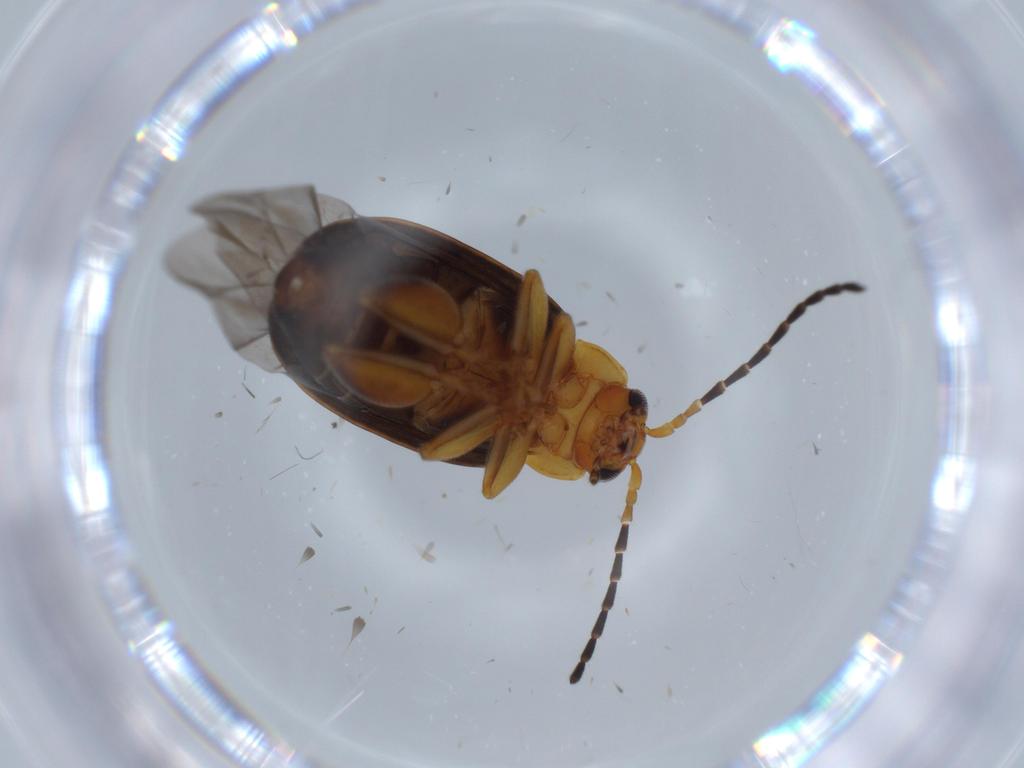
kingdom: Animalia
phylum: Arthropoda
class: Insecta
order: Coleoptera
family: Chrysomelidae
